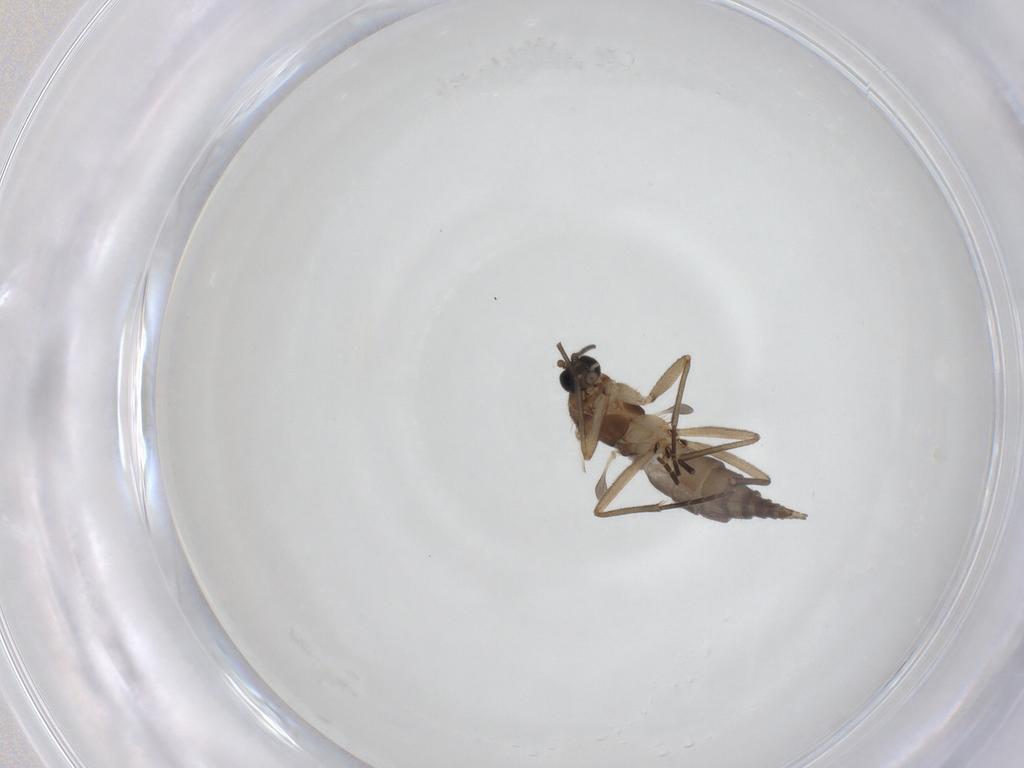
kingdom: Animalia
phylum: Arthropoda
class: Insecta
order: Diptera
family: Sciaridae
